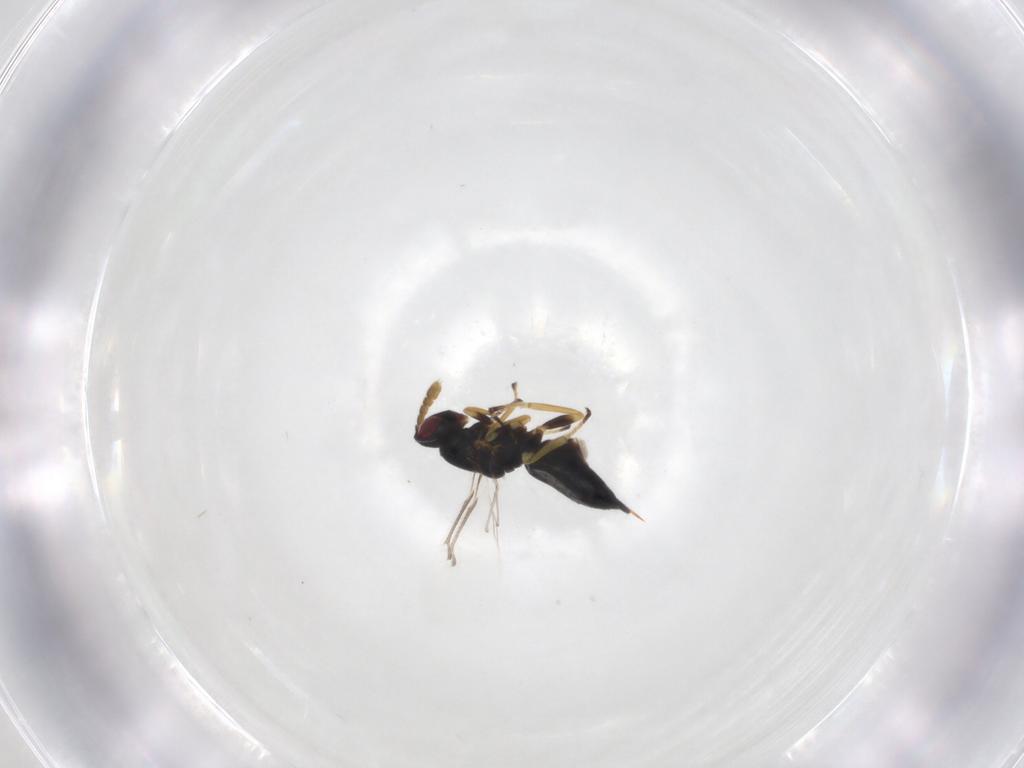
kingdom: Animalia
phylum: Arthropoda
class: Insecta
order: Hymenoptera
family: Eulophidae
